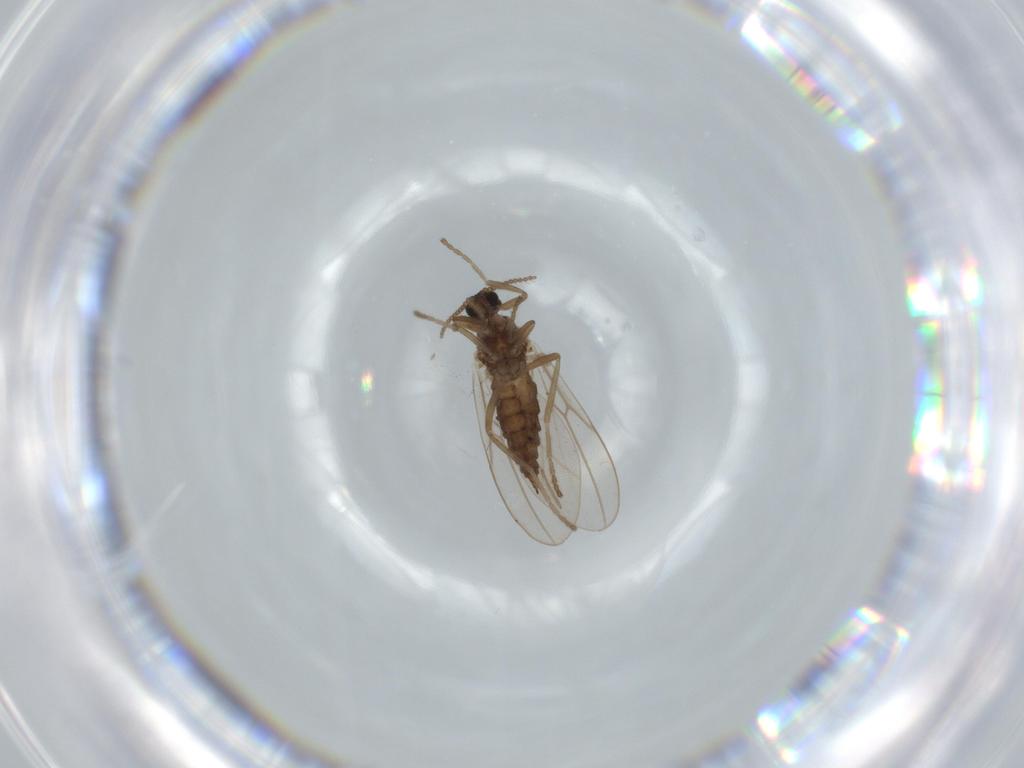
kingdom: Animalia
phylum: Arthropoda
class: Insecta
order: Diptera
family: Cecidomyiidae
